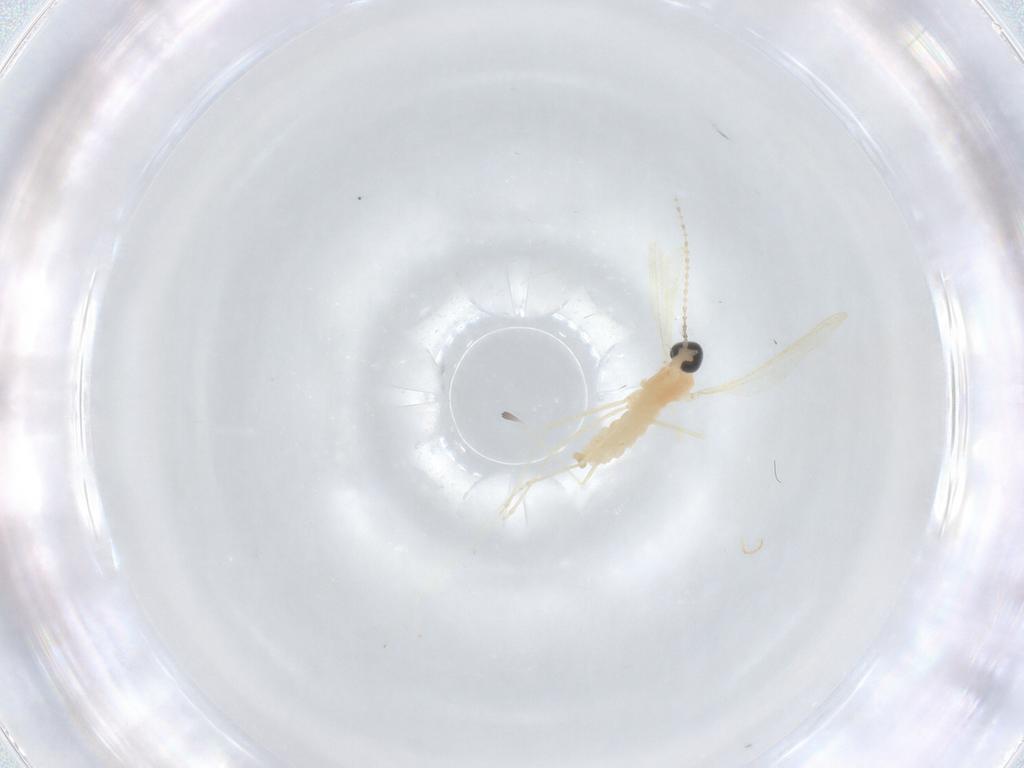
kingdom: Animalia
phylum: Arthropoda
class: Insecta
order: Diptera
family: Cecidomyiidae
